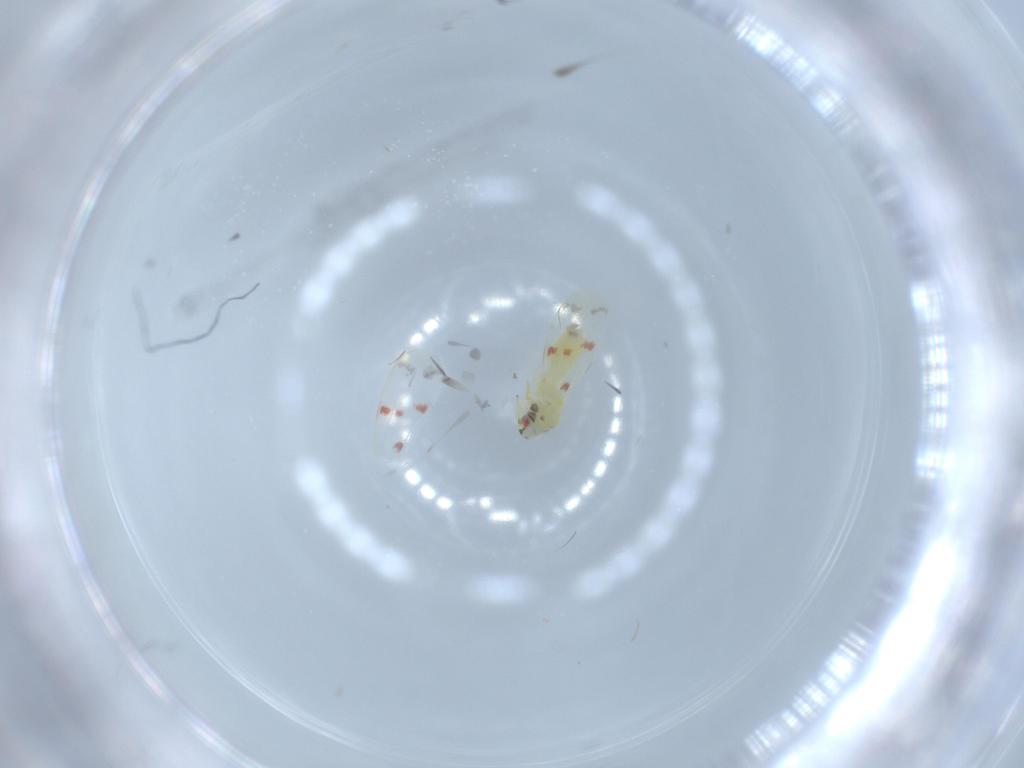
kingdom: Animalia
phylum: Arthropoda
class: Insecta
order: Hemiptera
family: Aleyrodidae
